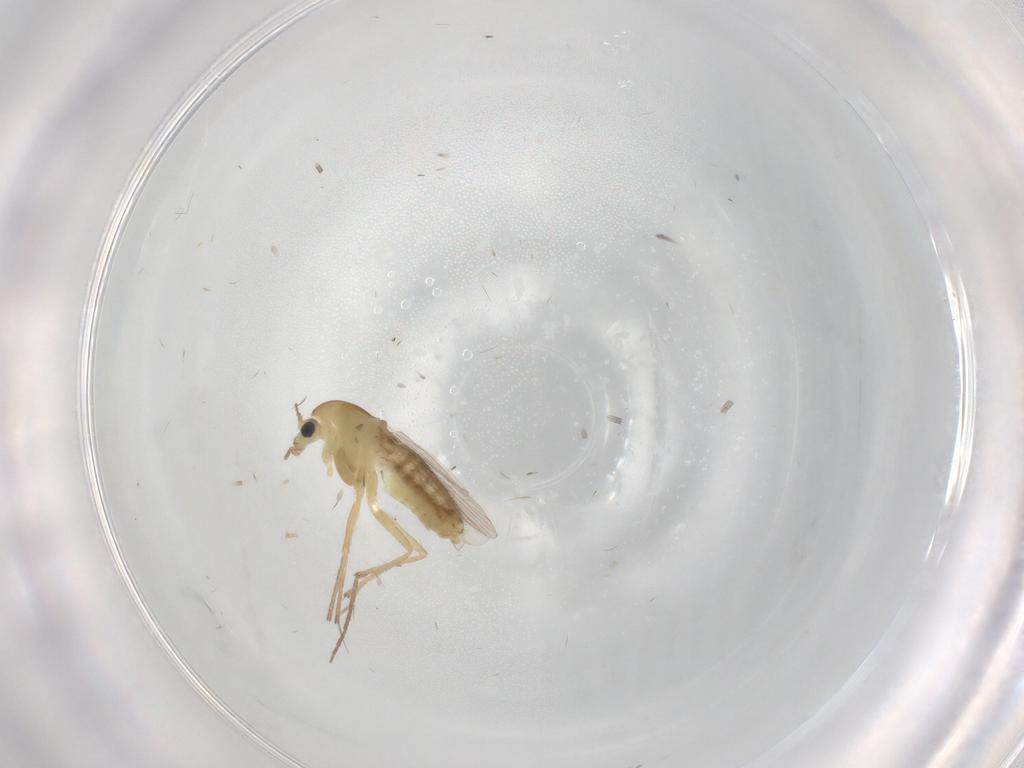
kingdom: Animalia
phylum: Arthropoda
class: Insecta
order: Diptera
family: Chironomidae
